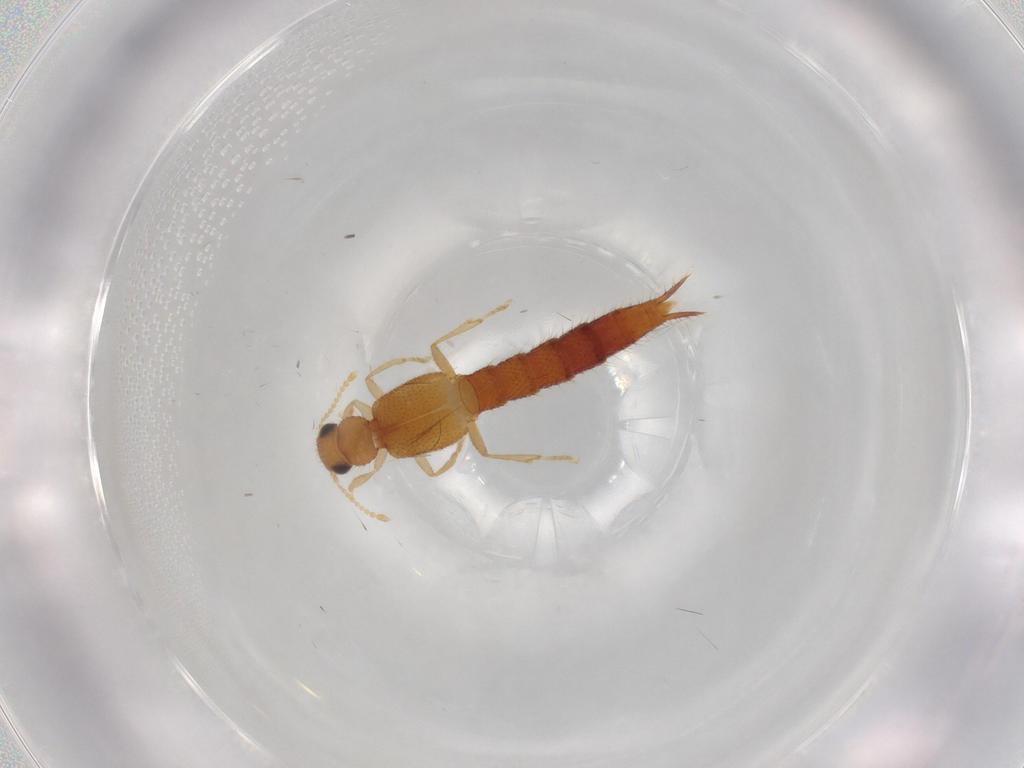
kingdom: Animalia
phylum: Arthropoda
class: Insecta
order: Coleoptera
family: Staphylinidae
